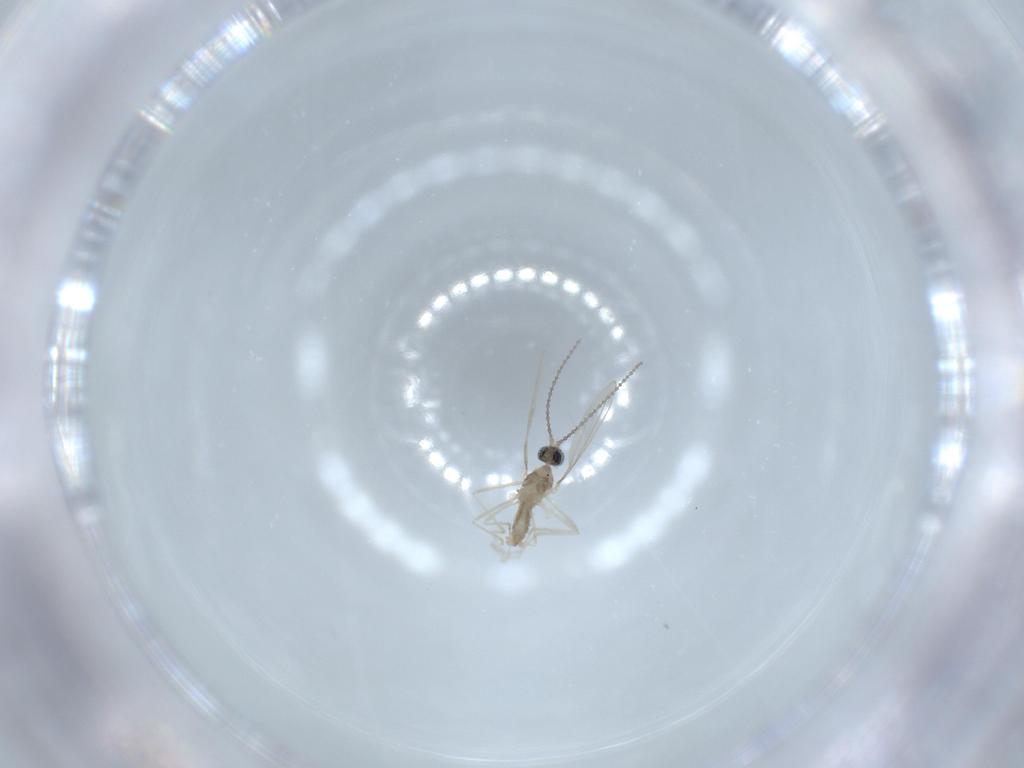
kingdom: Animalia
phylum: Arthropoda
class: Insecta
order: Diptera
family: Cecidomyiidae
